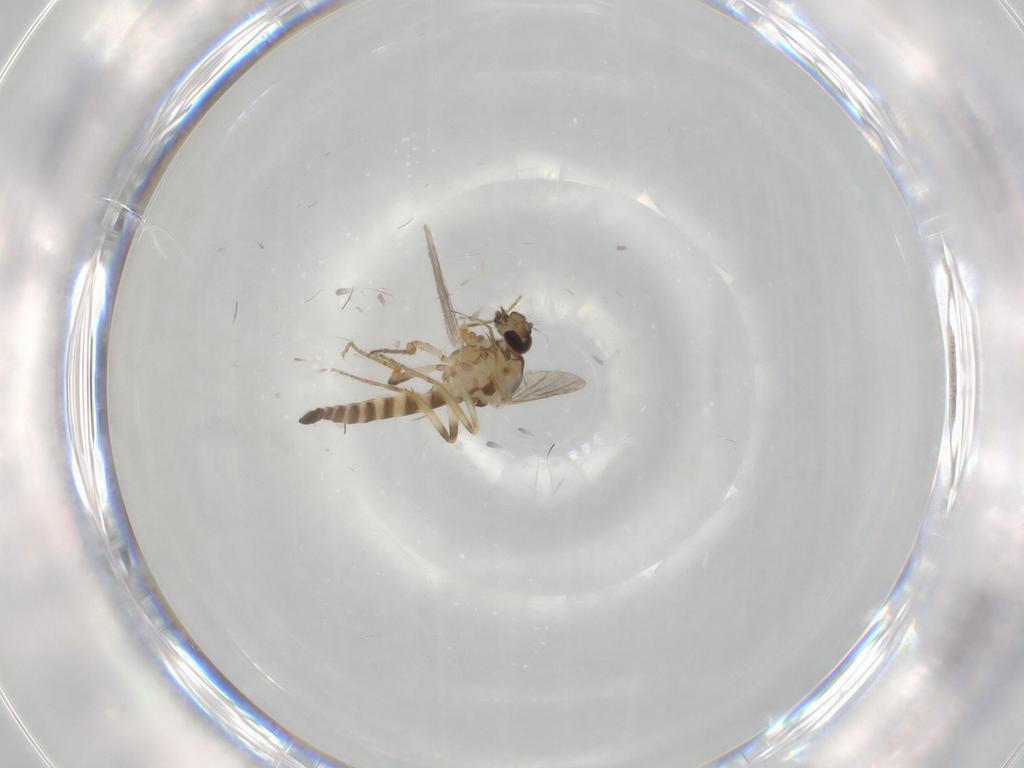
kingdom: Animalia
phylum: Arthropoda
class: Insecta
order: Diptera
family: Ceratopogonidae
